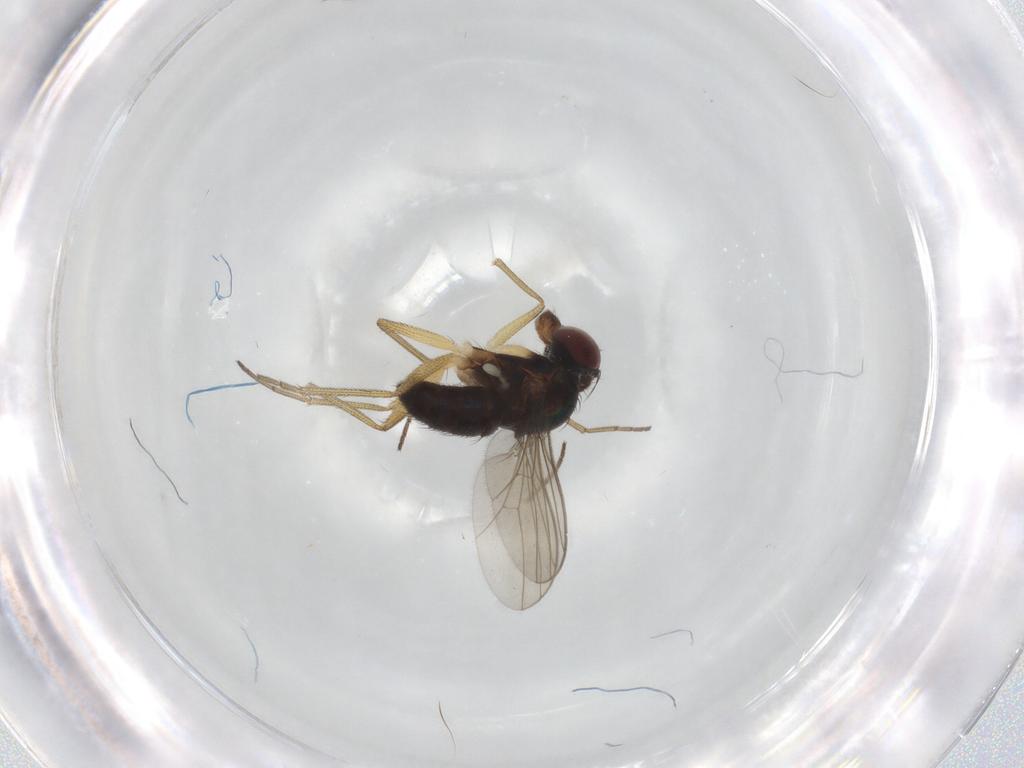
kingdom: Animalia
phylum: Arthropoda
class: Insecta
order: Diptera
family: Dolichopodidae
